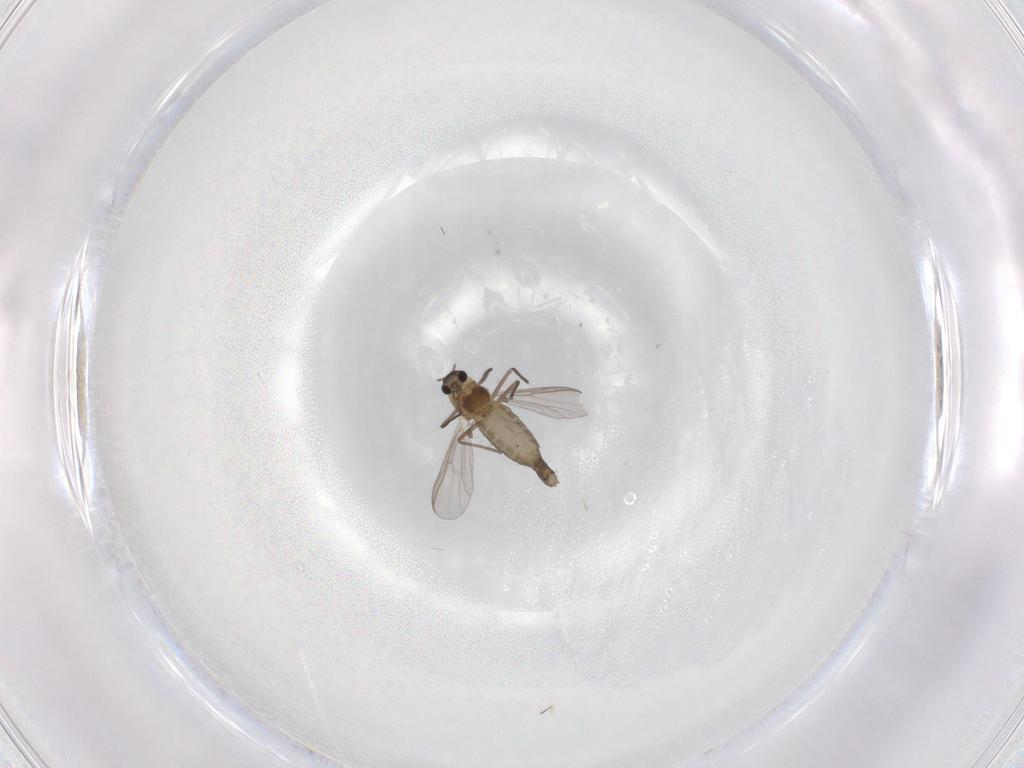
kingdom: Animalia
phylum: Arthropoda
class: Insecta
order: Diptera
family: Chironomidae
